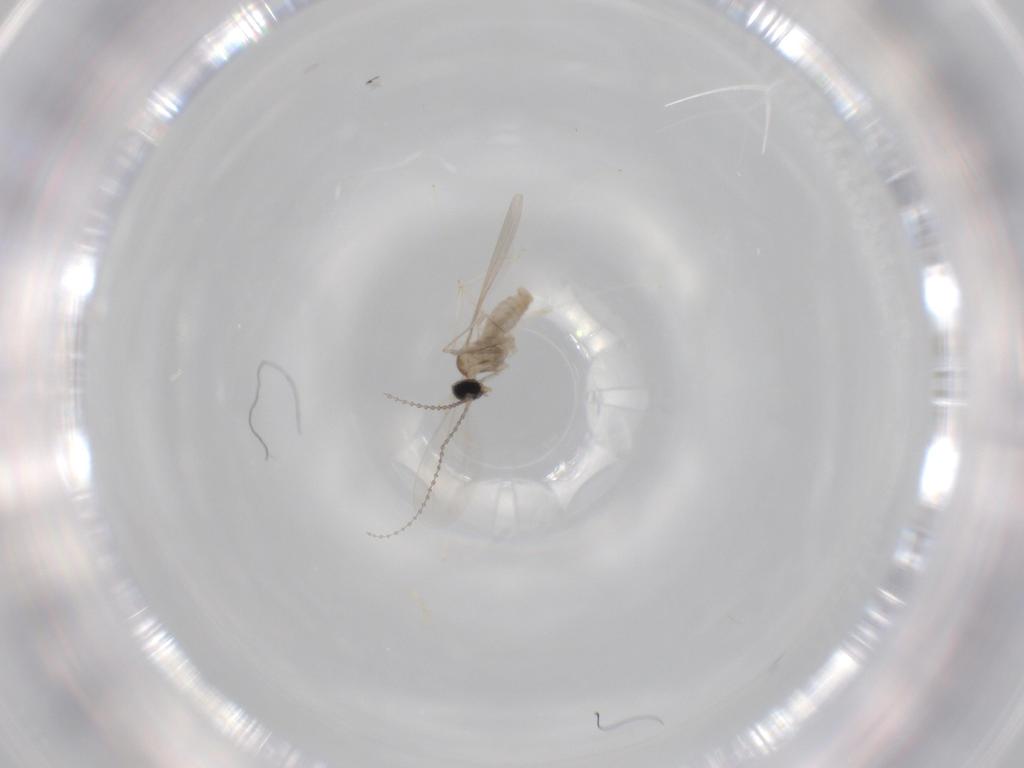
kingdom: Animalia
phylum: Arthropoda
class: Insecta
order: Diptera
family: Cecidomyiidae
